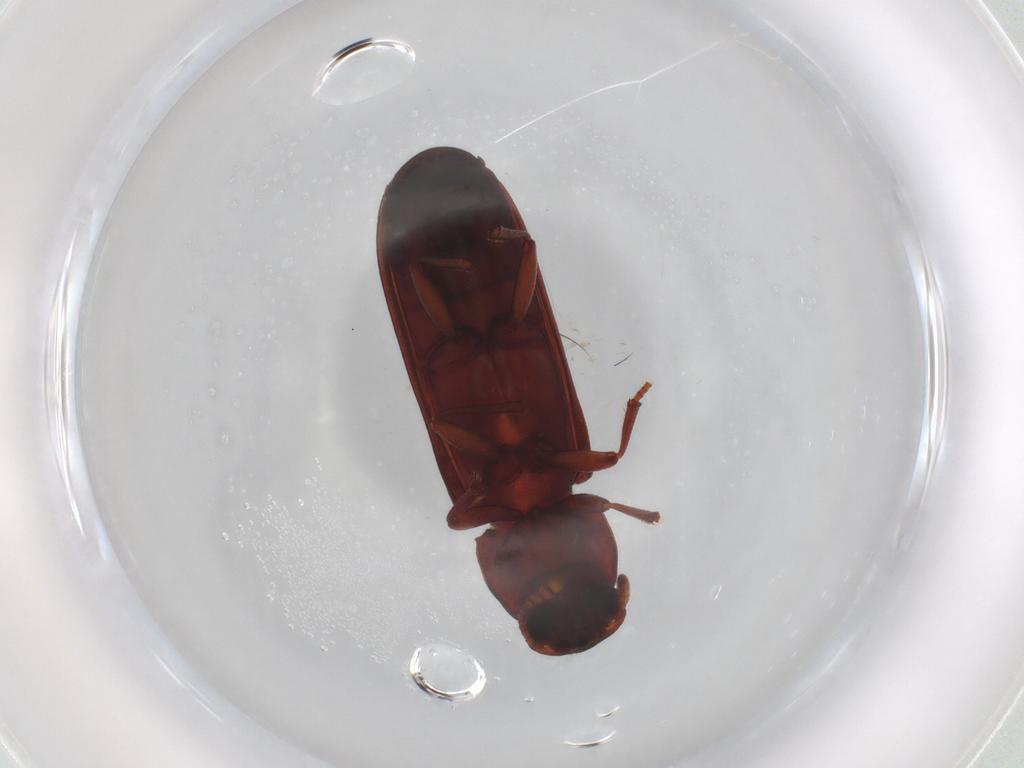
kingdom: Animalia
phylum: Arthropoda
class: Insecta
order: Coleoptera
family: Tenebrionidae
